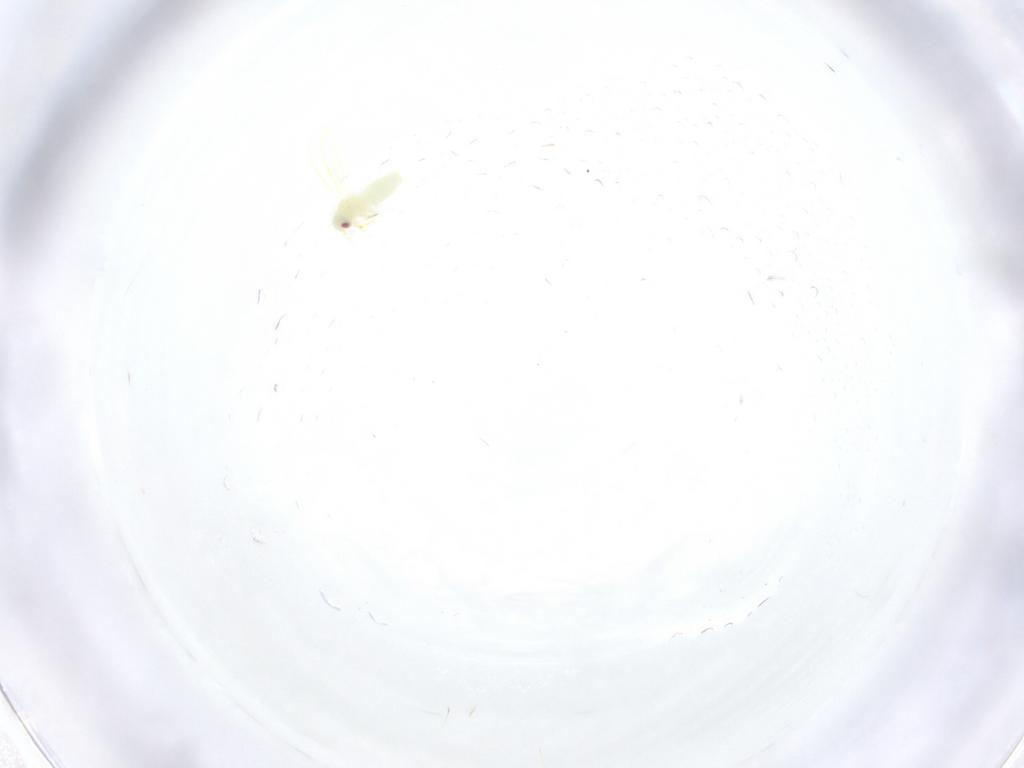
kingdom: Animalia
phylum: Arthropoda
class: Insecta
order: Hemiptera
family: Aleyrodidae
